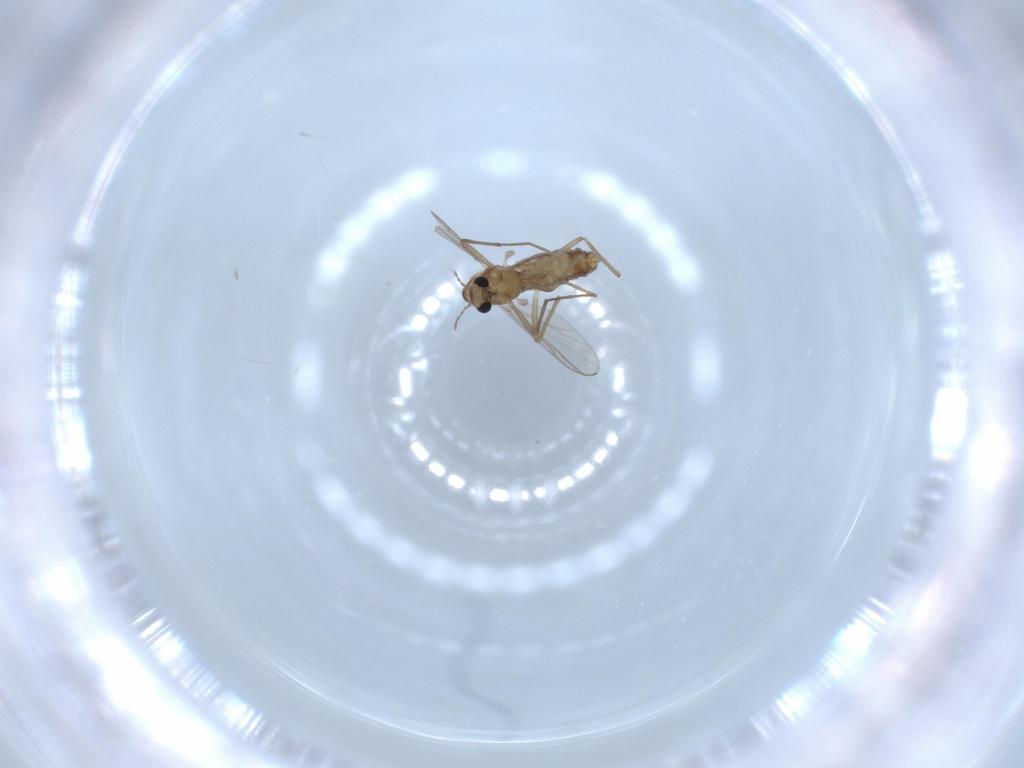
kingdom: Animalia
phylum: Arthropoda
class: Insecta
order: Diptera
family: Chironomidae
